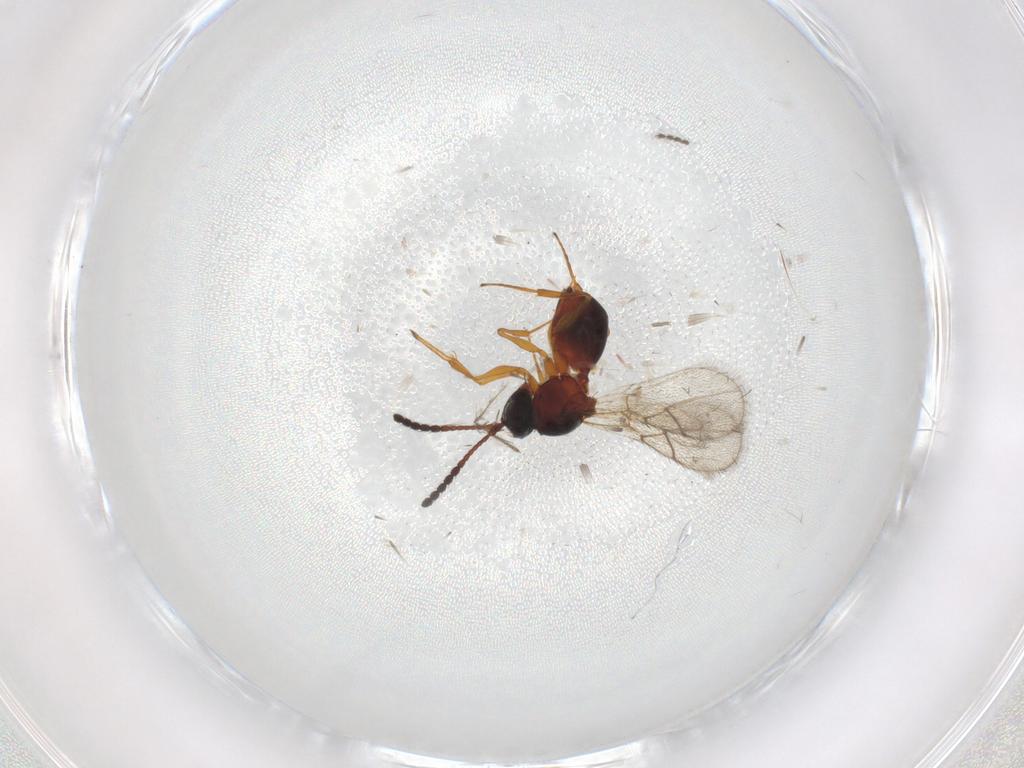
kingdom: Animalia
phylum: Arthropoda
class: Insecta
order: Hymenoptera
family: Figitidae
